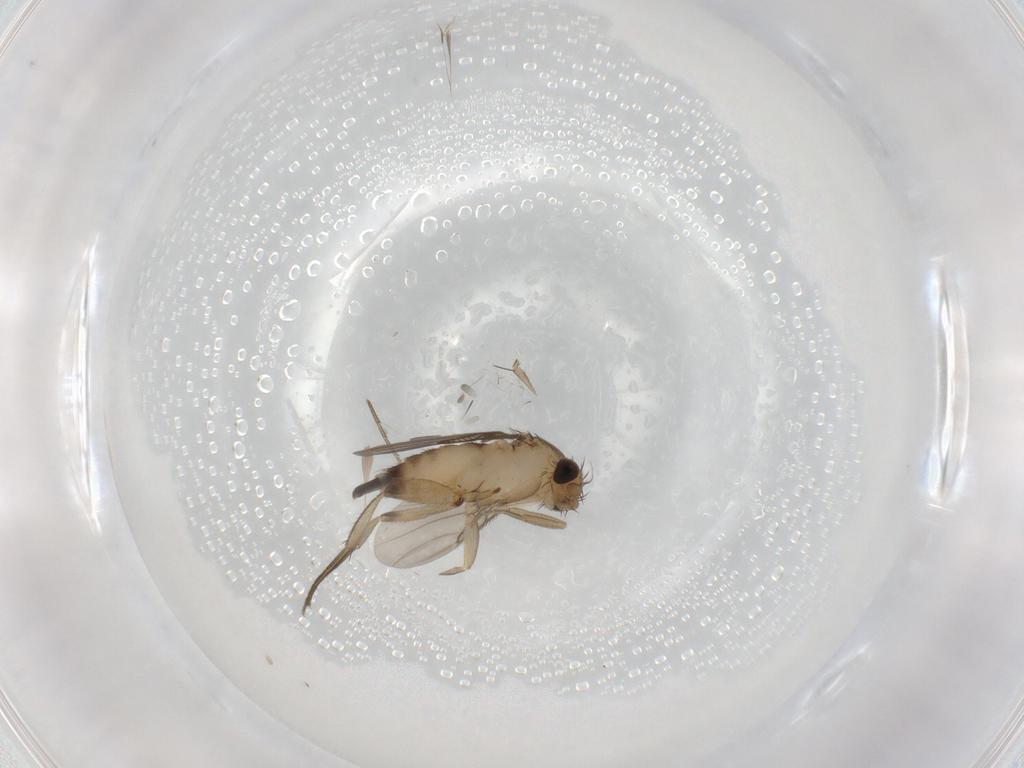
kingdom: Animalia
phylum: Arthropoda
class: Insecta
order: Diptera
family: Phoridae
